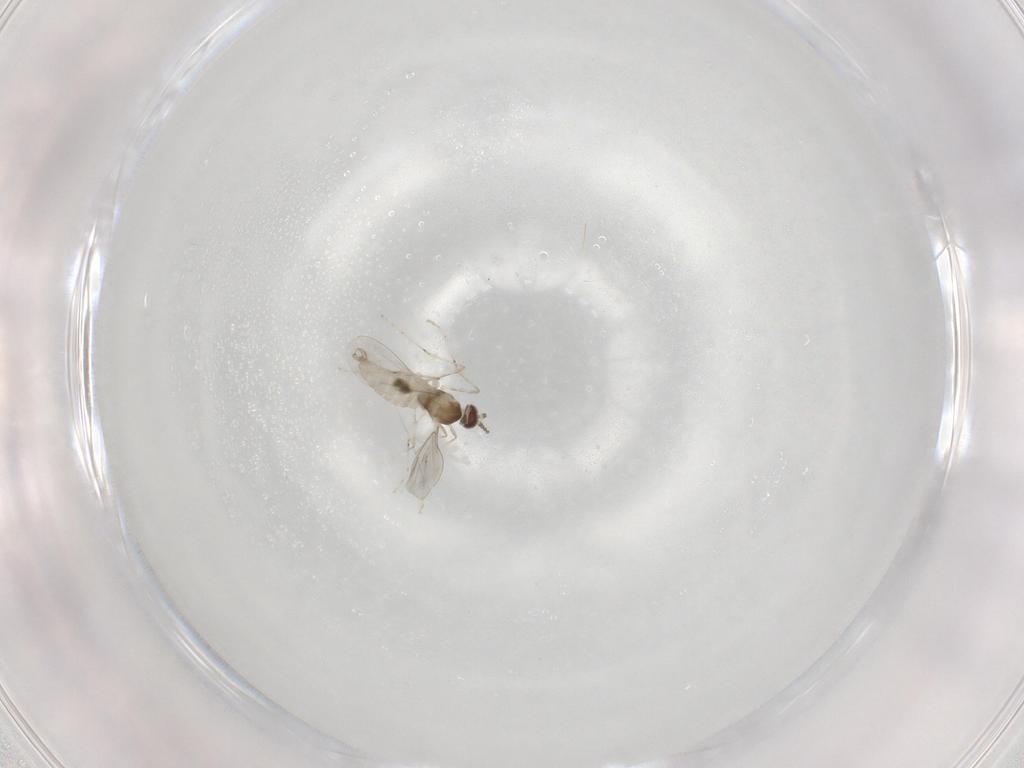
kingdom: Animalia
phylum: Arthropoda
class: Insecta
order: Diptera
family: Cecidomyiidae
